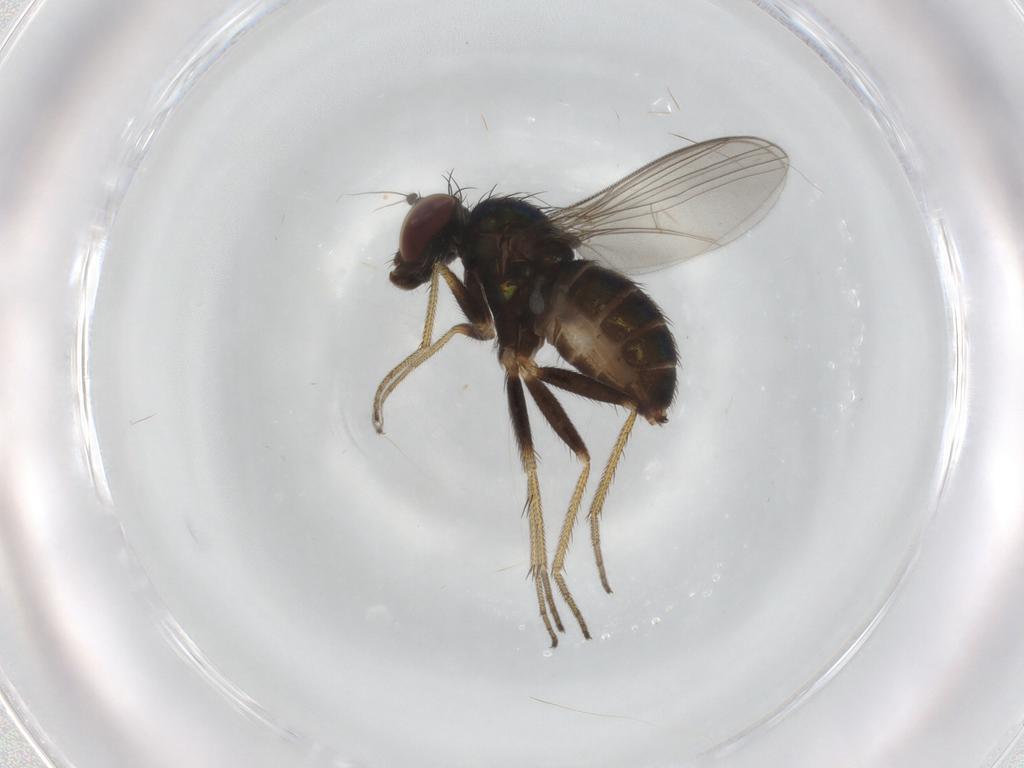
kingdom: Animalia
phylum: Arthropoda
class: Insecta
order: Diptera
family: Dolichopodidae
